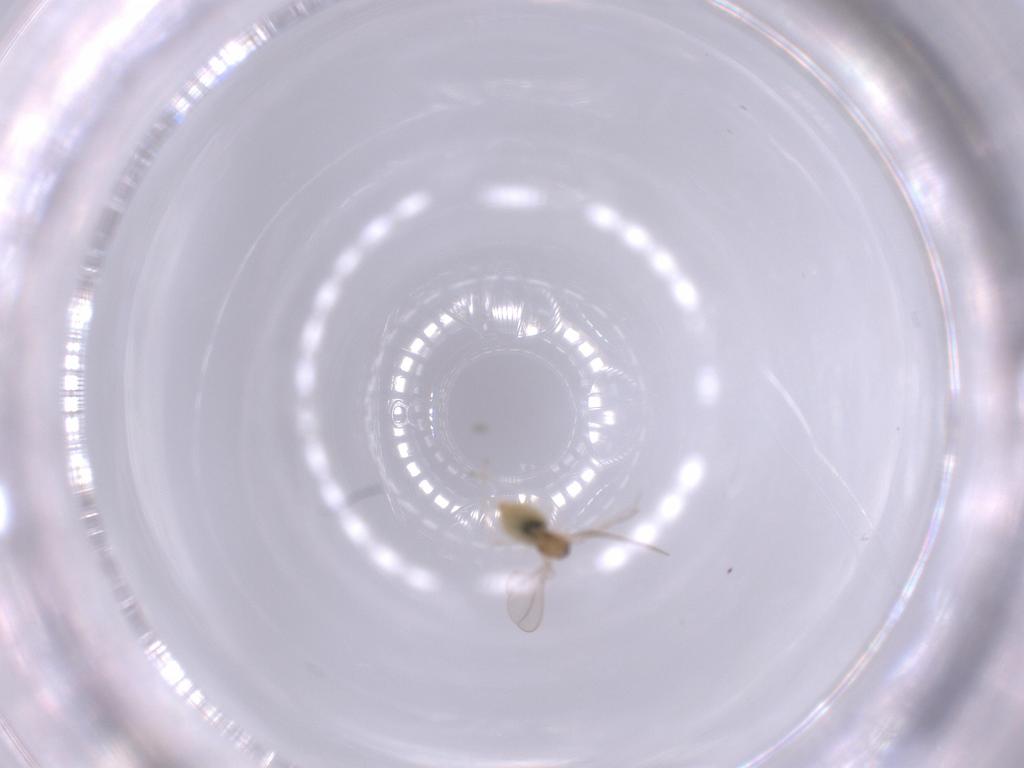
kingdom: Animalia
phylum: Arthropoda
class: Insecta
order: Diptera
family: Cecidomyiidae
